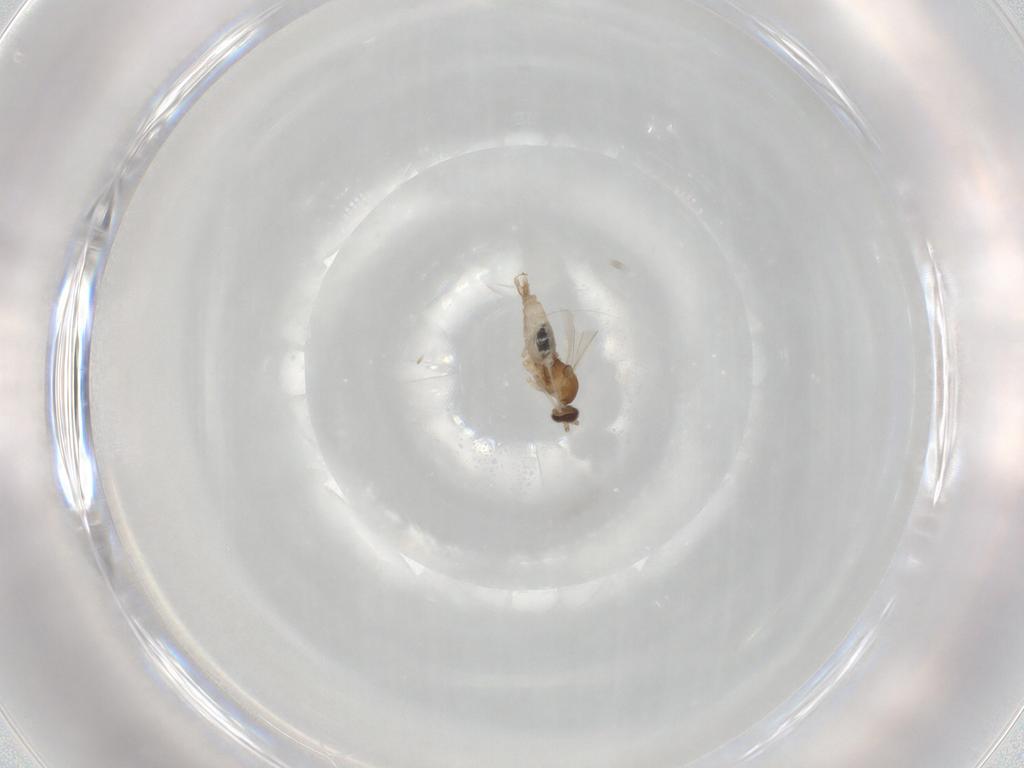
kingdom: Animalia
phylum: Arthropoda
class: Insecta
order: Diptera
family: Cecidomyiidae
